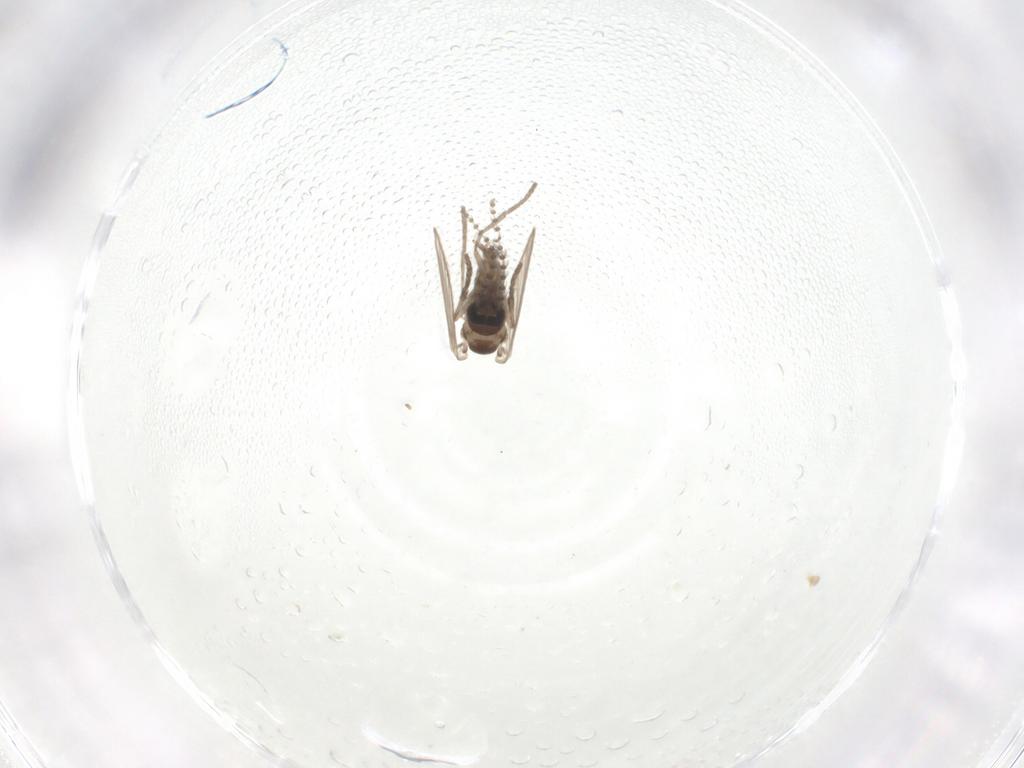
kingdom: Animalia
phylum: Arthropoda
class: Insecta
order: Diptera
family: Psychodidae
